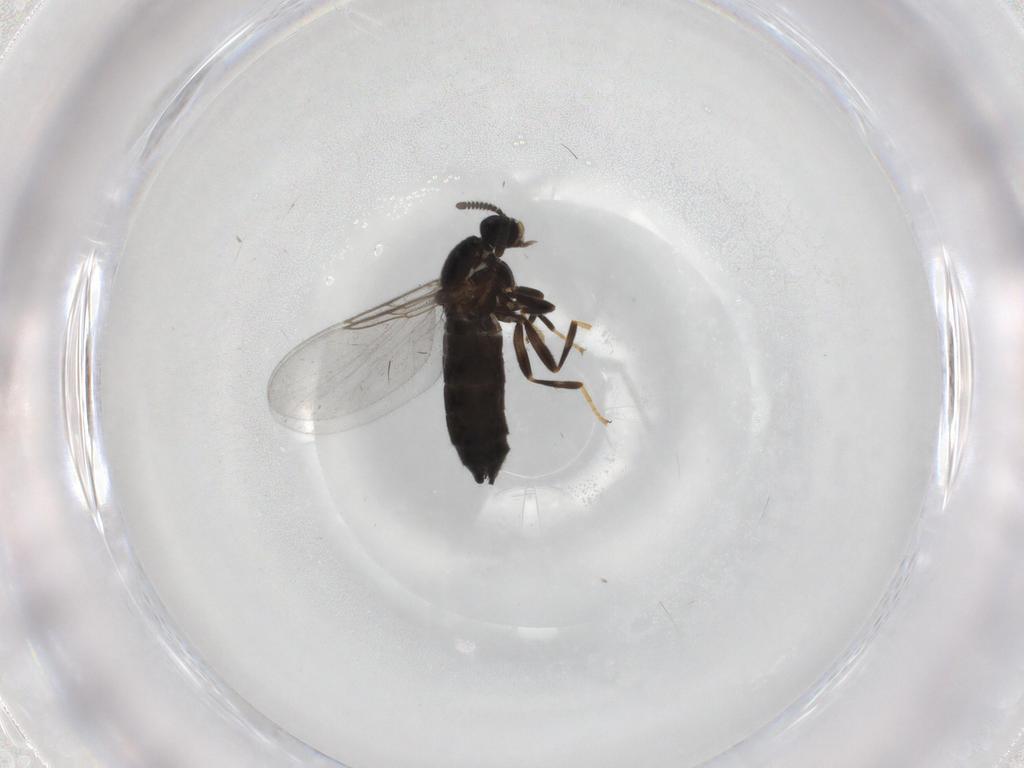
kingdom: Animalia
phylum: Arthropoda
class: Insecta
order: Diptera
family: Scatopsidae
